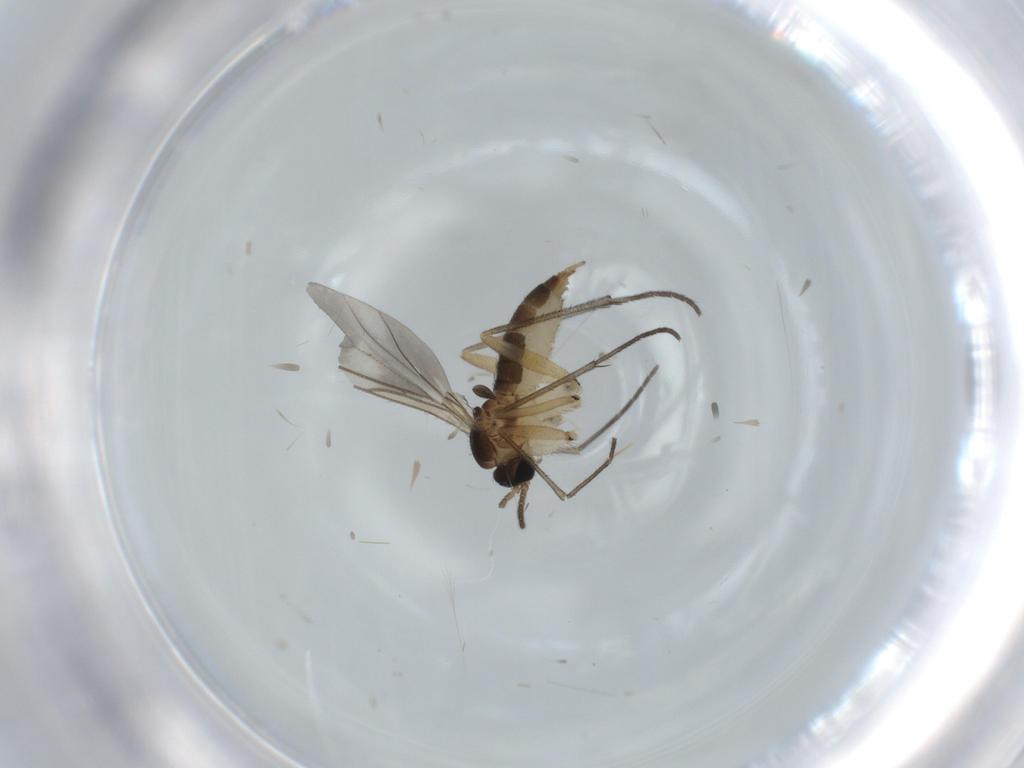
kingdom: Animalia
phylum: Arthropoda
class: Insecta
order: Diptera
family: Sciaridae
